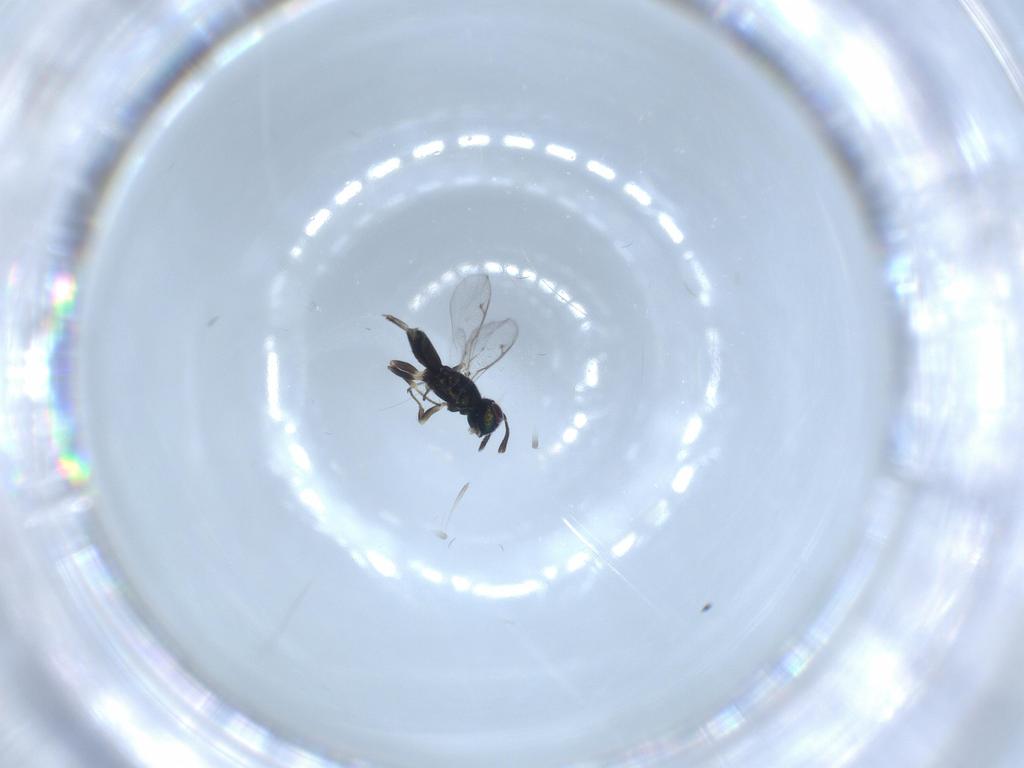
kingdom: Animalia
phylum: Arthropoda
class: Insecta
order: Hymenoptera
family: Eupelmidae
